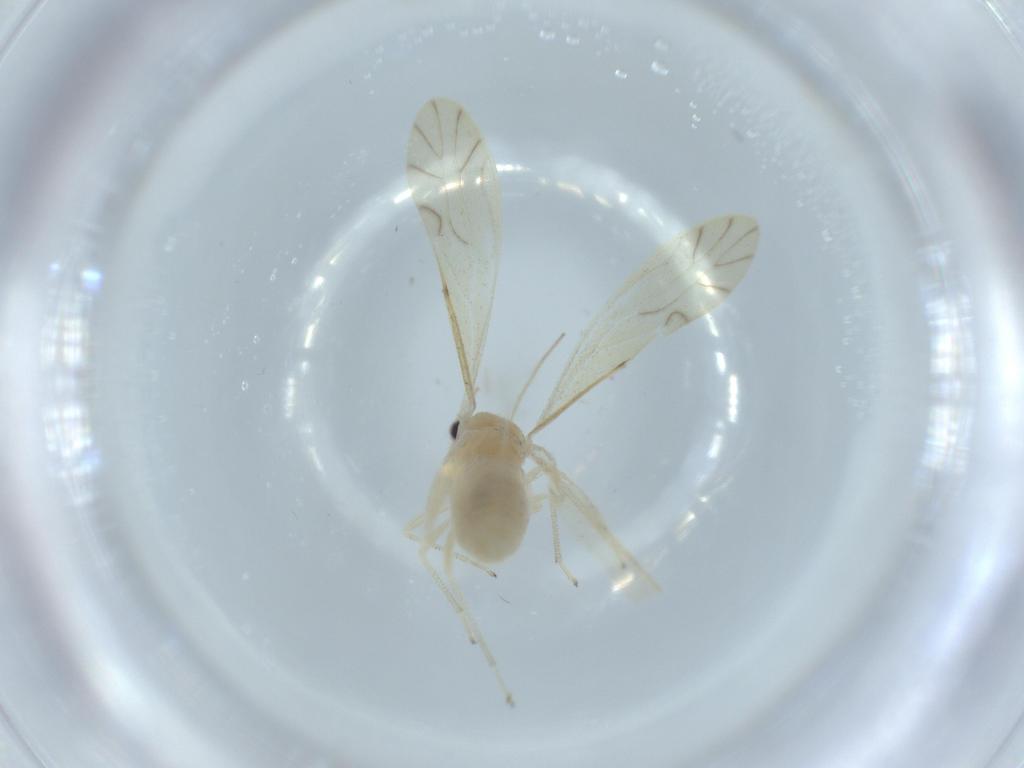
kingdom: Animalia
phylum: Arthropoda
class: Insecta
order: Psocodea
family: Caeciliusidae
